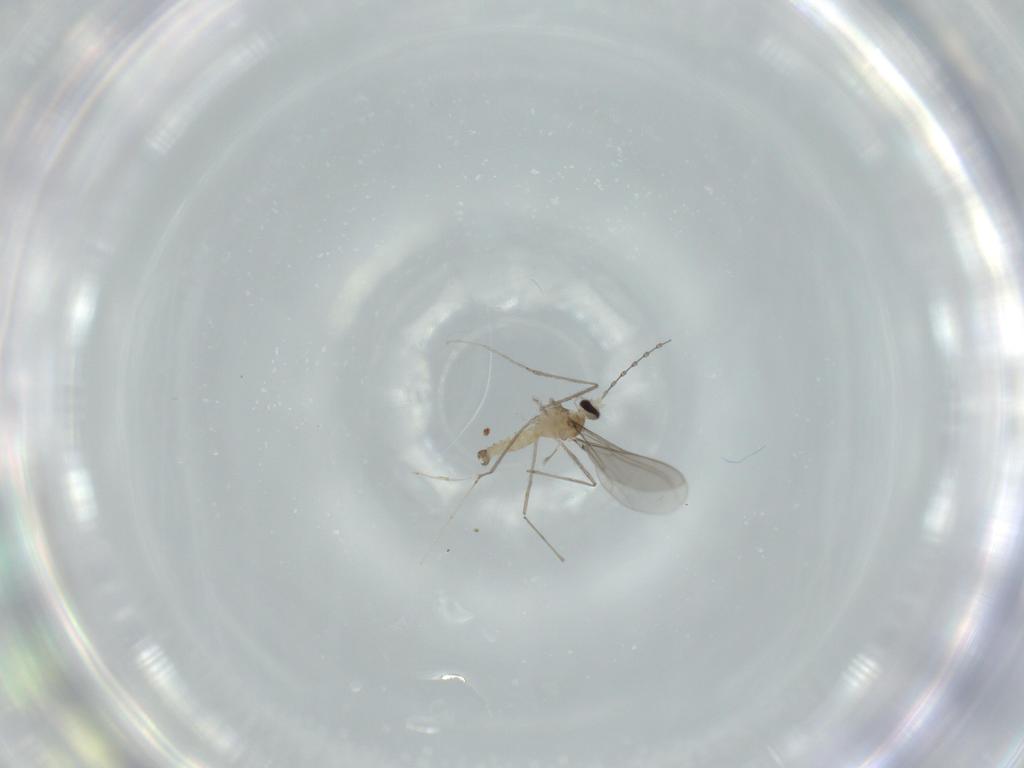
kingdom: Animalia
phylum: Arthropoda
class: Insecta
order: Diptera
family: Cecidomyiidae
